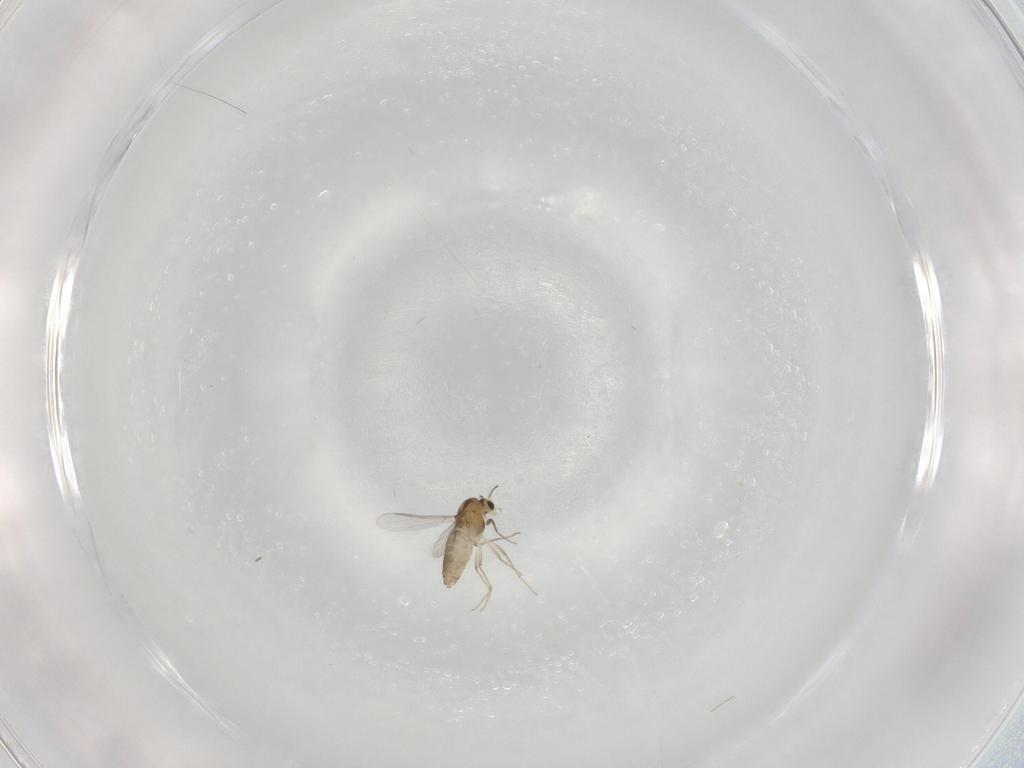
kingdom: Animalia
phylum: Arthropoda
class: Insecta
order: Diptera
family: Chironomidae
